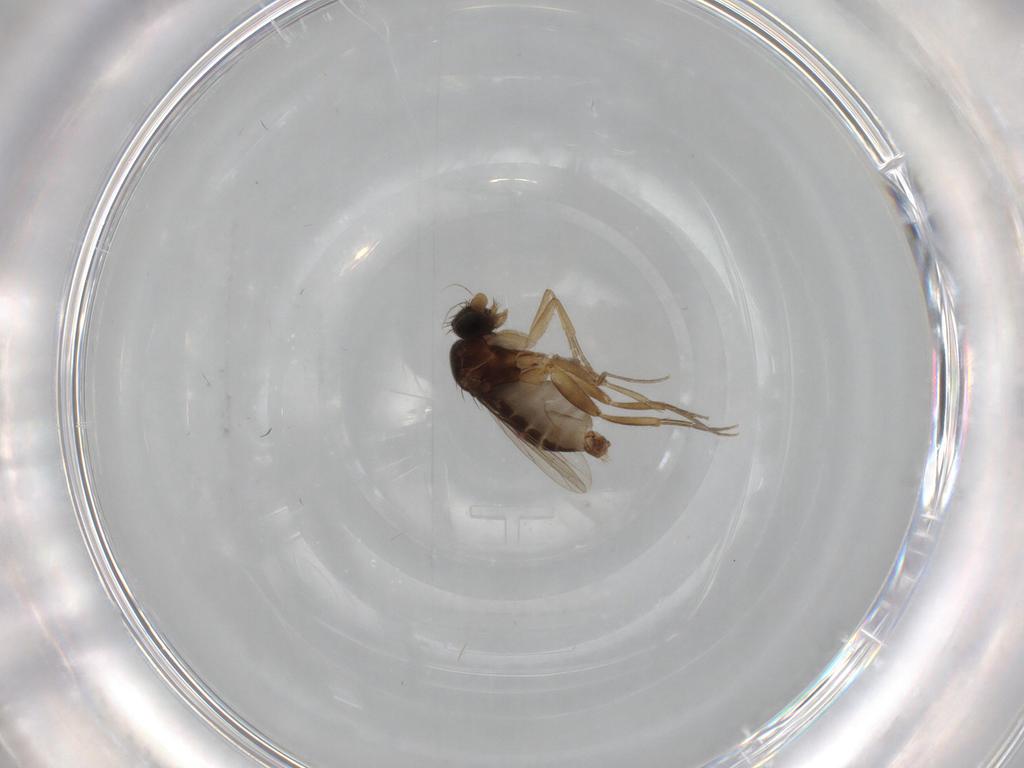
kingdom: Animalia
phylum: Arthropoda
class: Insecta
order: Diptera
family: Phoridae
